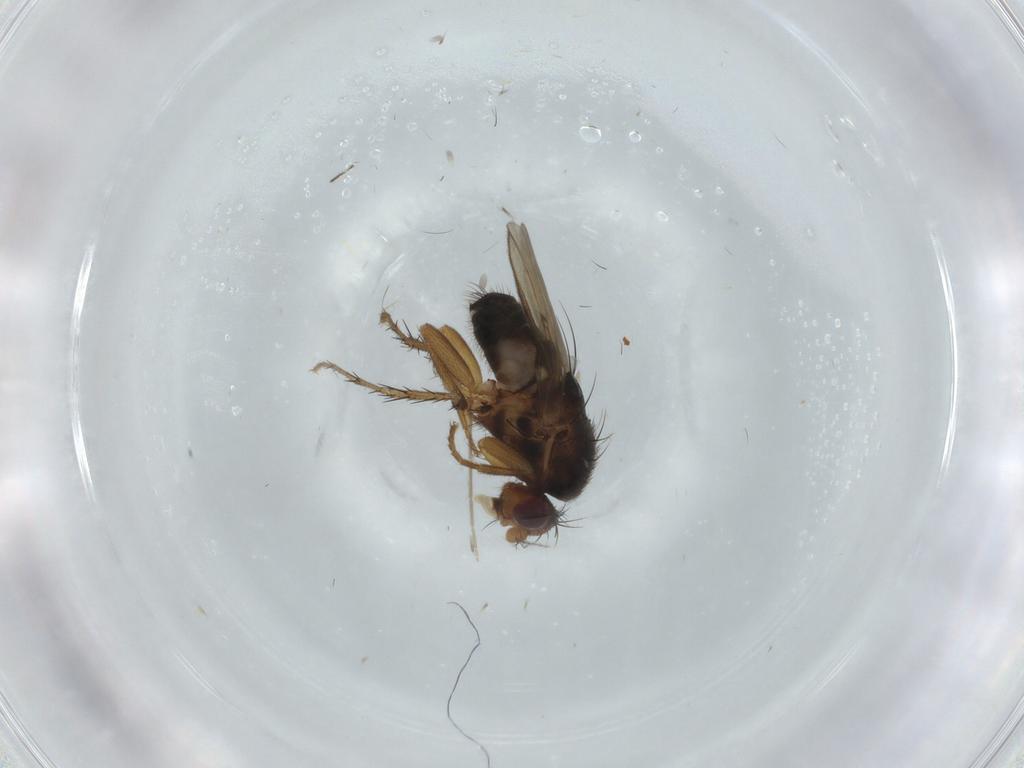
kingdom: Animalia
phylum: Arthropoda
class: Insecta
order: Diptera
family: Sphaeroceridae
